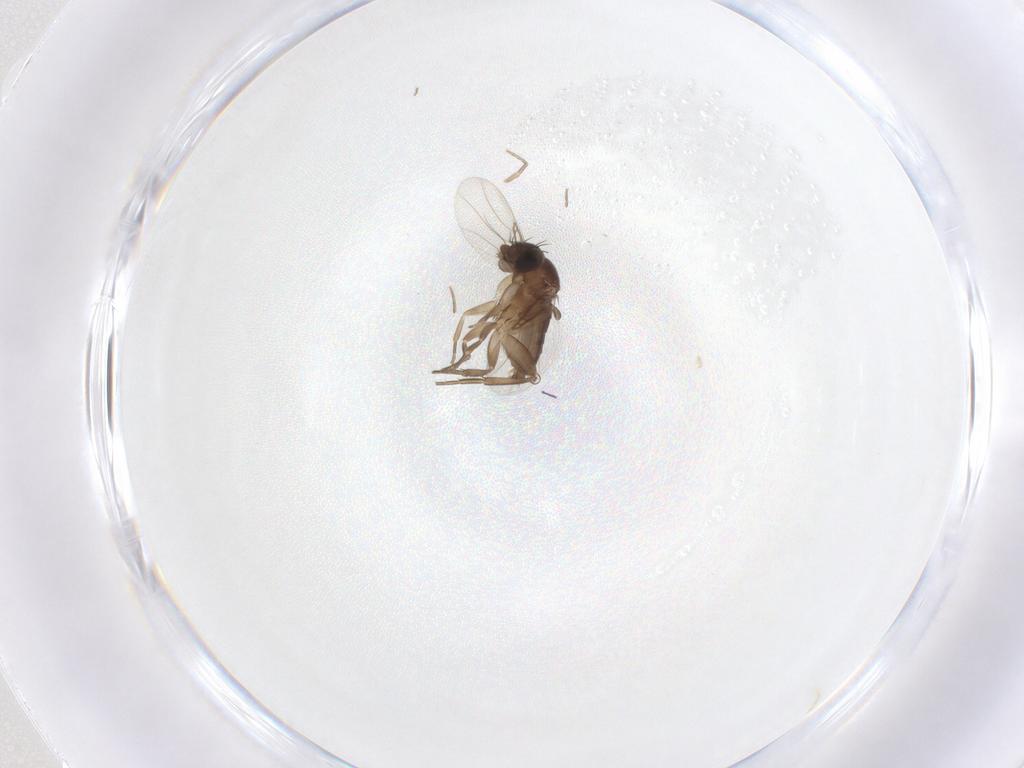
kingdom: Animalia
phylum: Arthropoda
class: Insecta
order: Diptera
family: Phoridae
